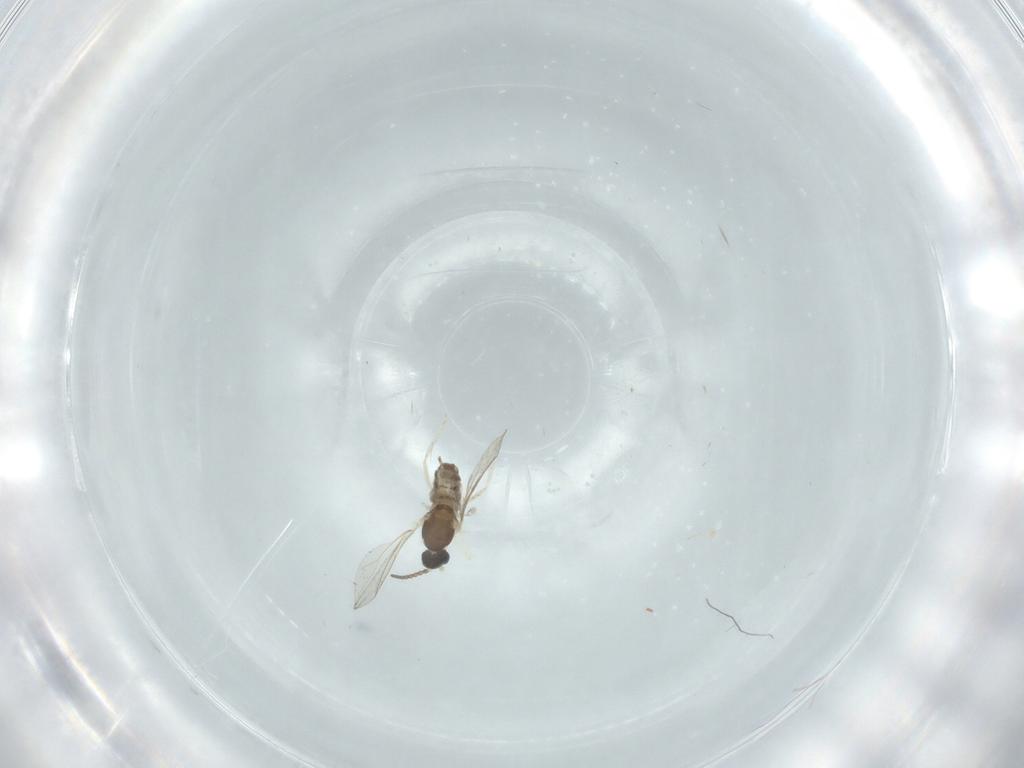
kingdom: Animalia
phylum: Arthropoda
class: Insecta
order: Diptera
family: Cecidomyiidae
